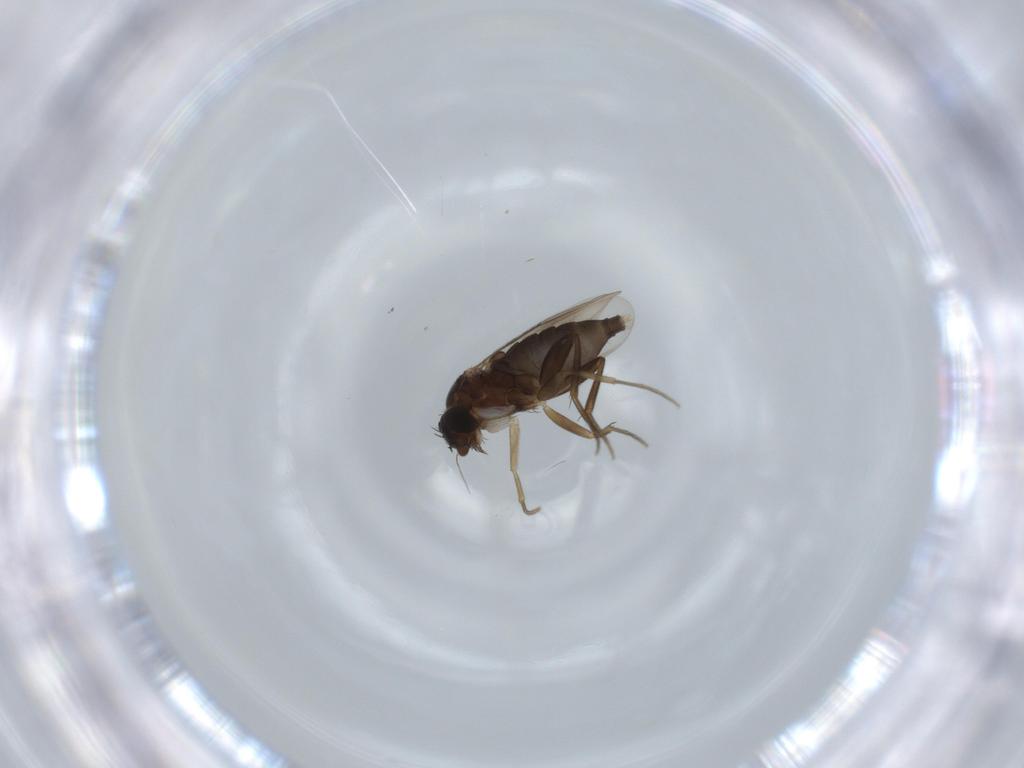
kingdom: Animalia
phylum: Arthropoda
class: Insecta
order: Diptera
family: Phoridae
